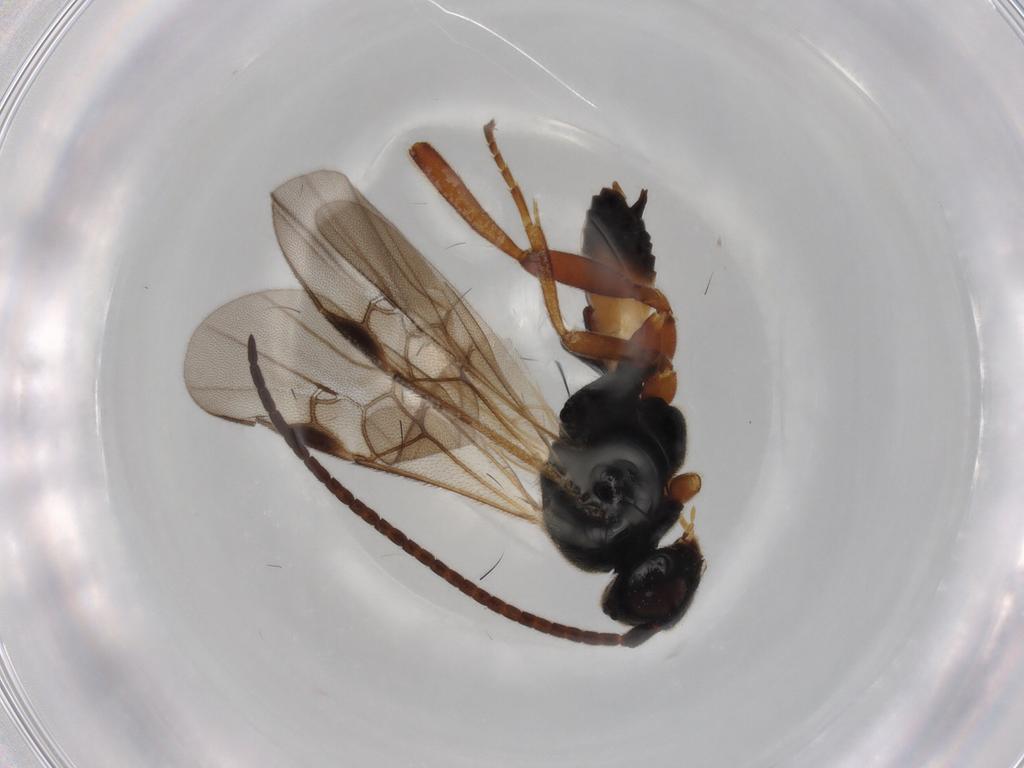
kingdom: Animalia
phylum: Arthropoda
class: Insecta
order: Hymenoptera
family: Braconidae
